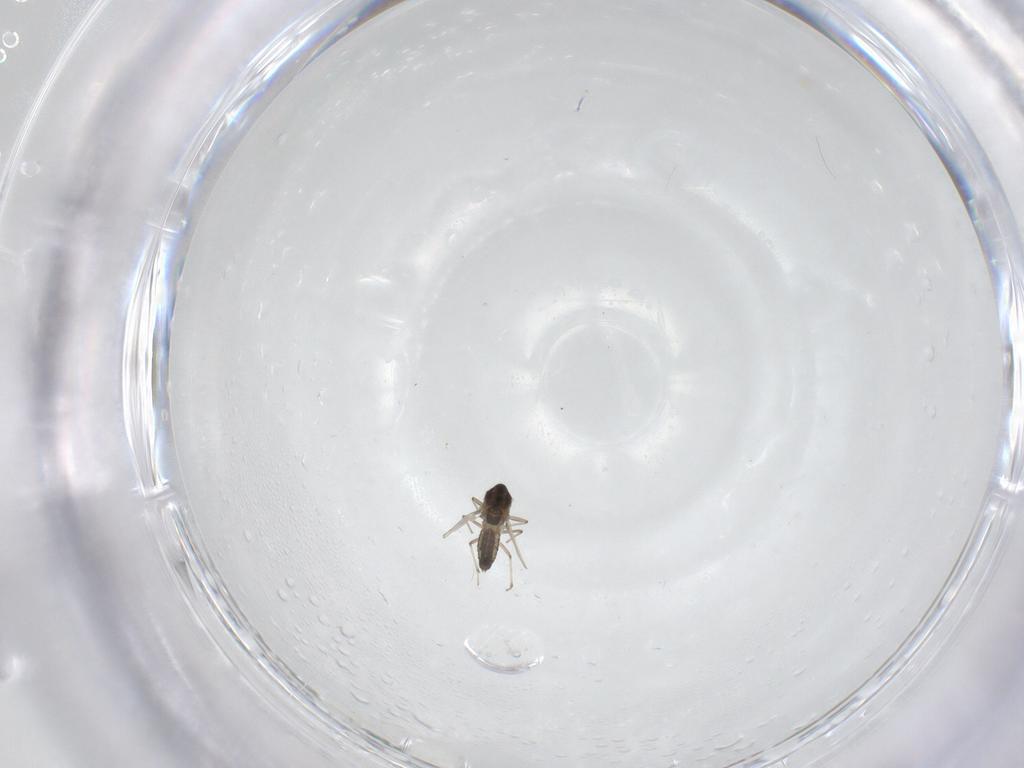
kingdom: Animalia
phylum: Arthropoda
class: Insecta
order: Diptera
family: Chironomidae
